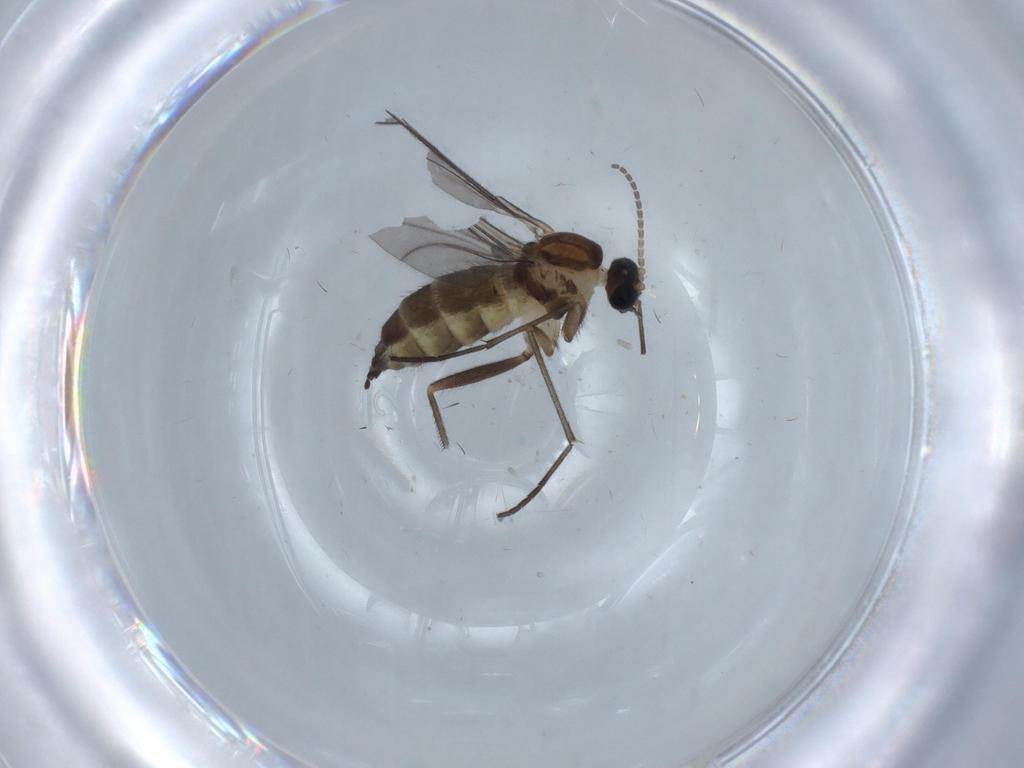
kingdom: Animalia
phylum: Arthropoda
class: Insecta
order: Diptera
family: Sciaridae
